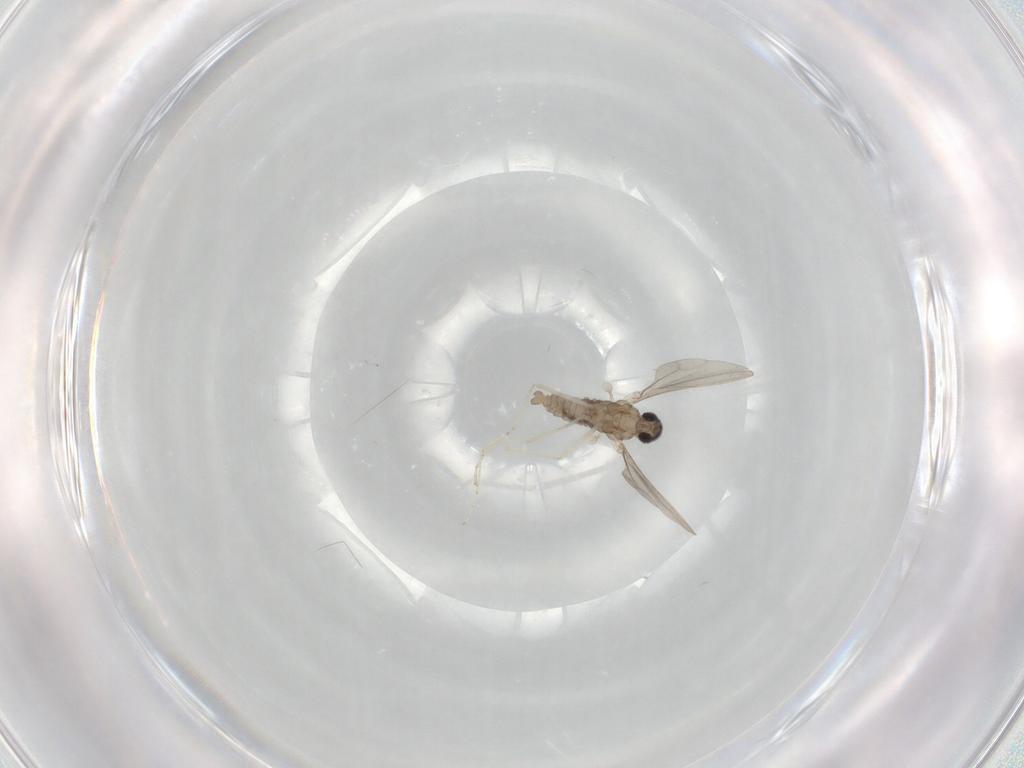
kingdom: Animalia
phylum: Arthropoda
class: Insecta
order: Diptera
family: Cecidomyiidae
